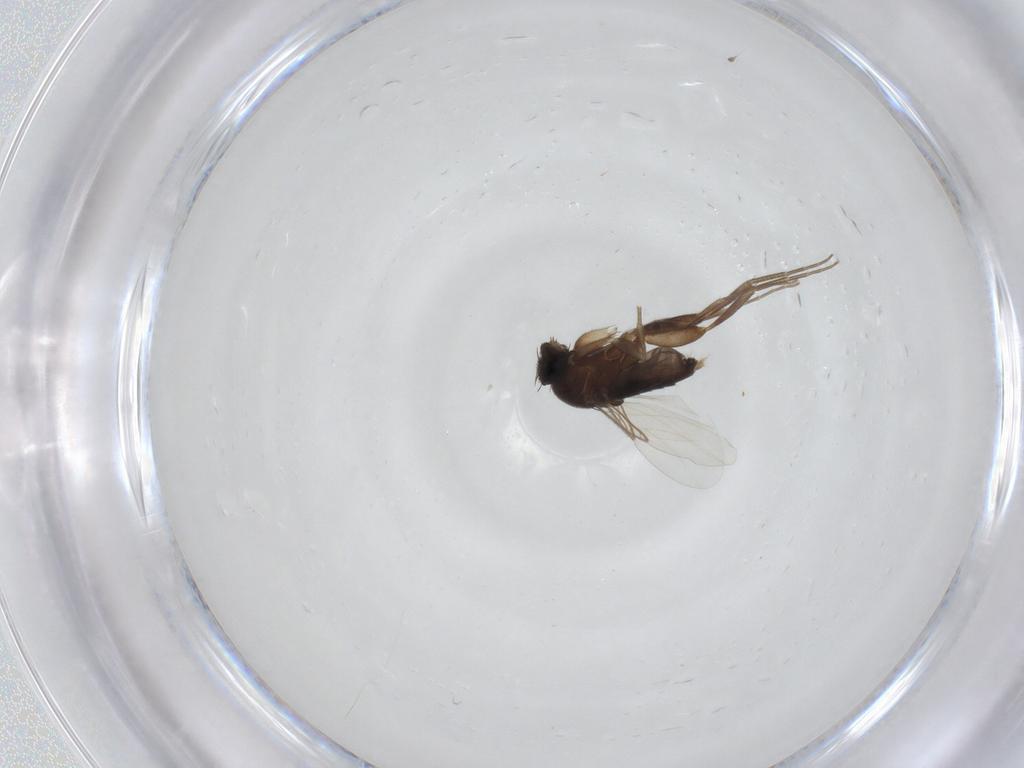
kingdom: Animalia
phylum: Arthropoda
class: Insecta
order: Diptera
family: Phoridae
